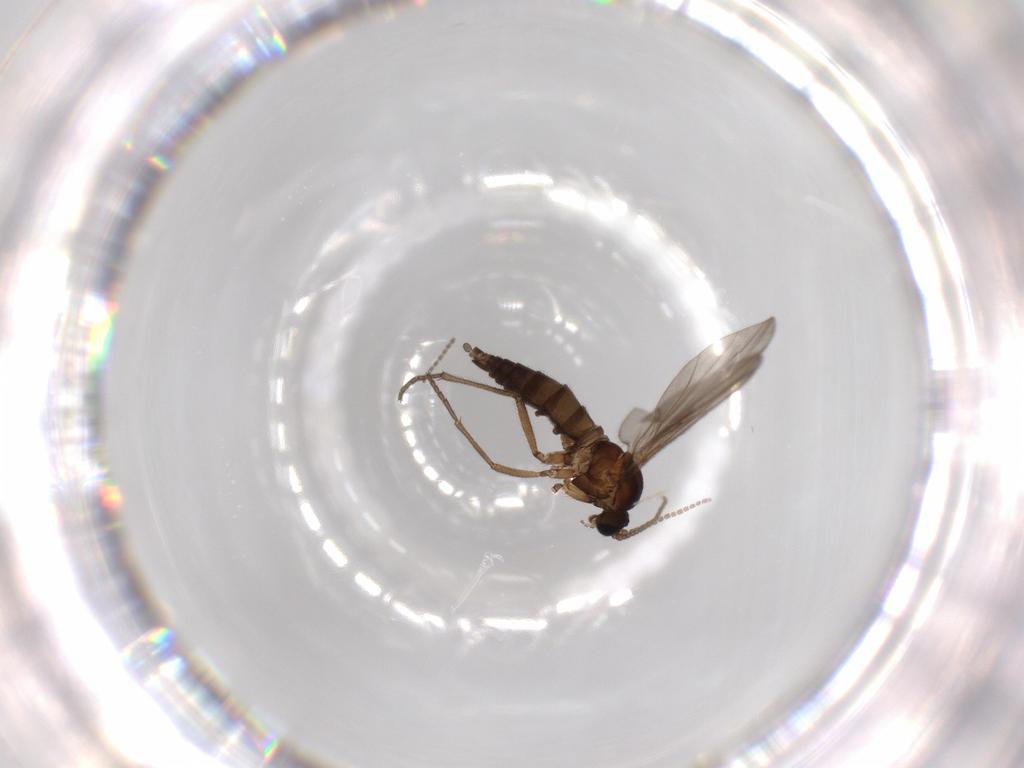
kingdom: Animalia
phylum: Arthropoda
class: Insecta
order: Diptera
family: Sciaridae
